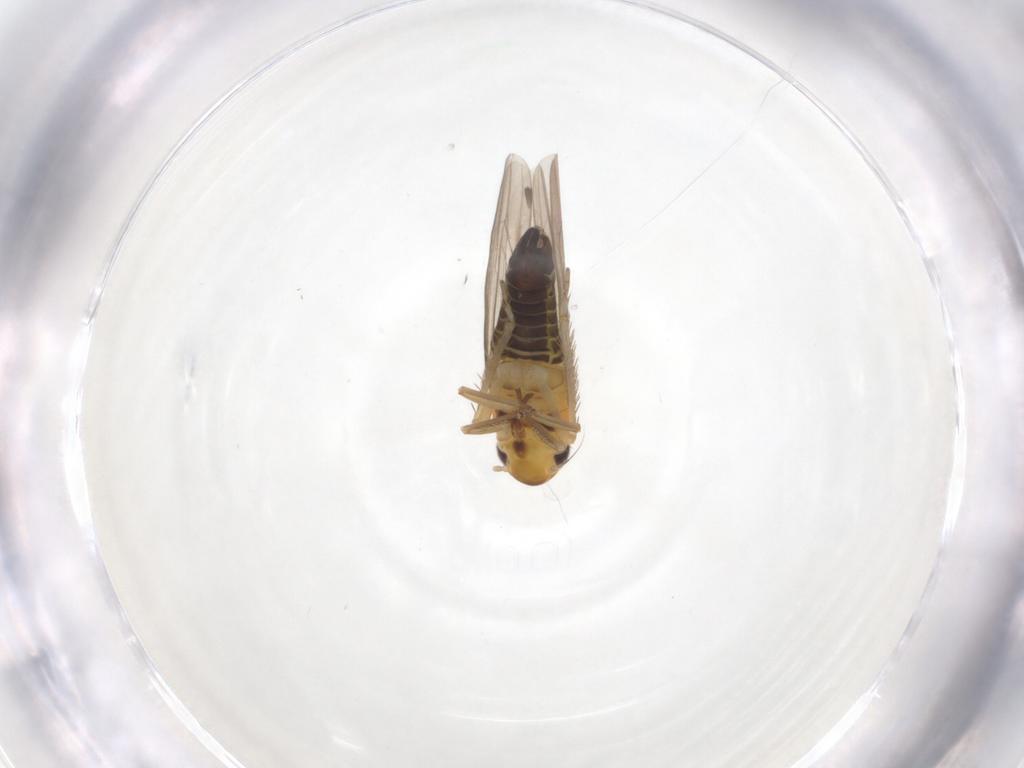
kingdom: Animalia
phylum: Arthropoda
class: Insecta
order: Hemiptera
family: Cicadellidae
